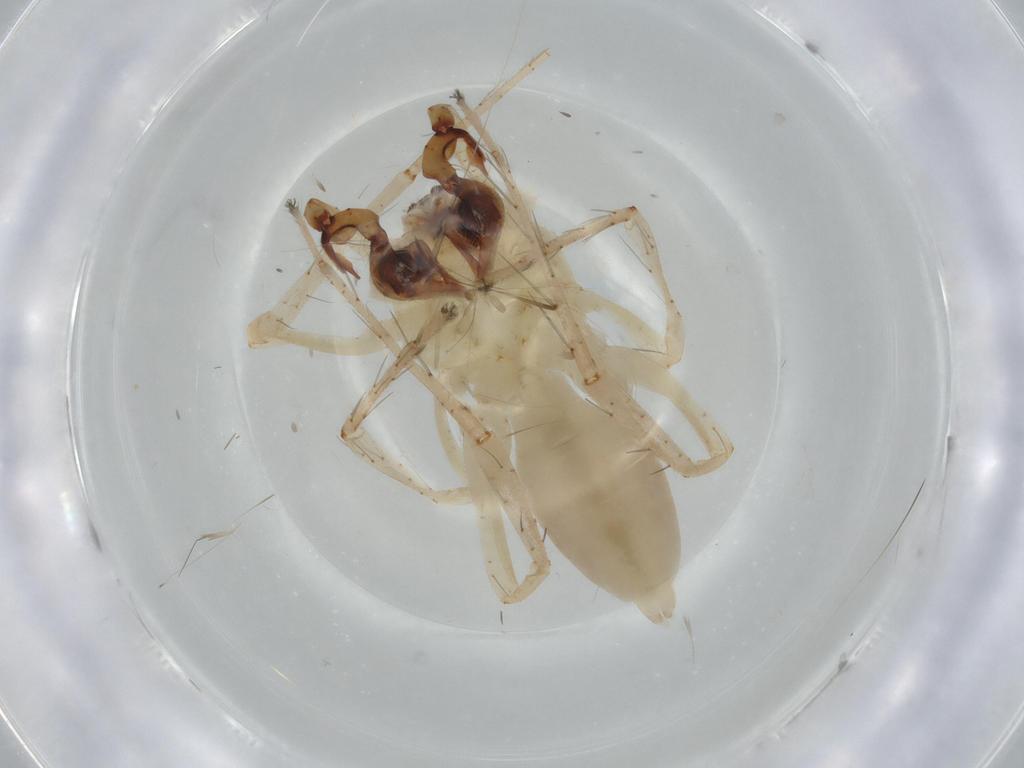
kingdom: Animalia
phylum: Arthropoda
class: Arachnida
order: Araneae
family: Anyphaenidae
